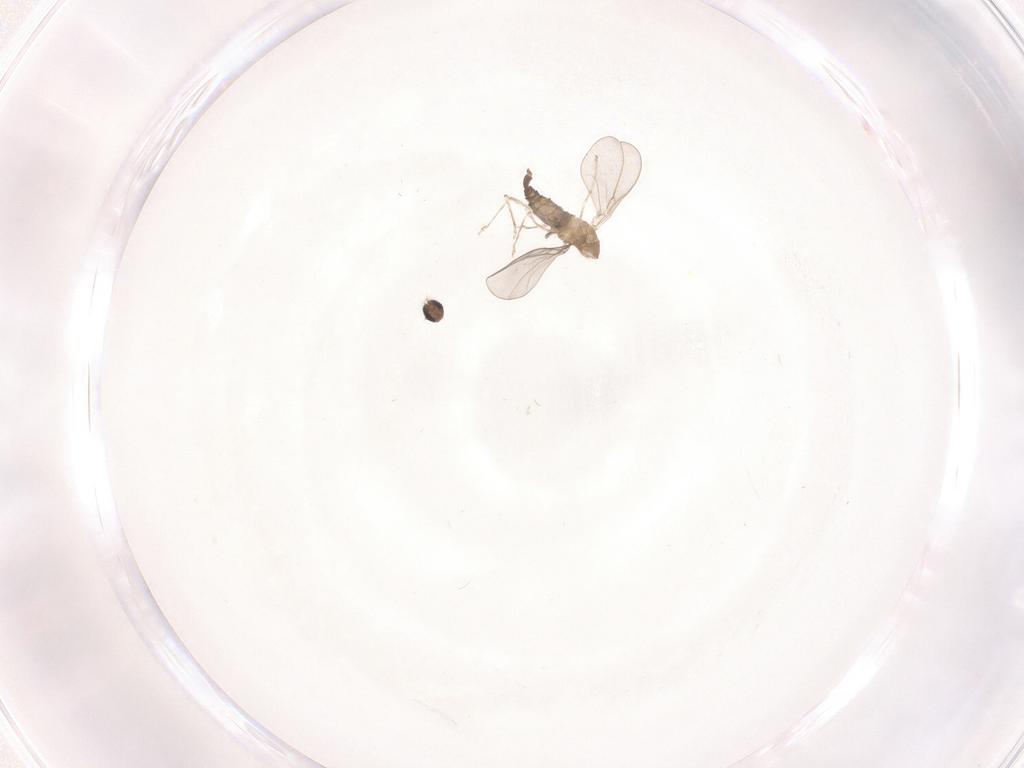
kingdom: Animalia
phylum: Arthropoda
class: Insecta
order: Diptera
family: Cecidomyiidae
